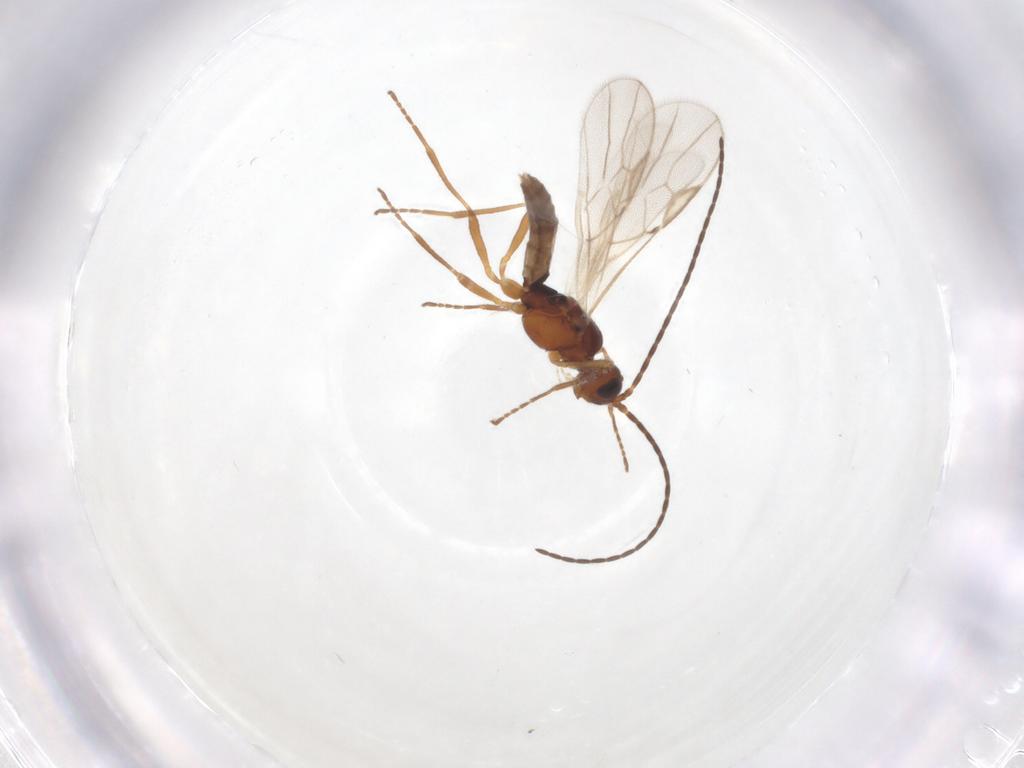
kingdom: Animalia
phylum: Arthropoda
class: Insecta
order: Hymenoptera
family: Braconidae
